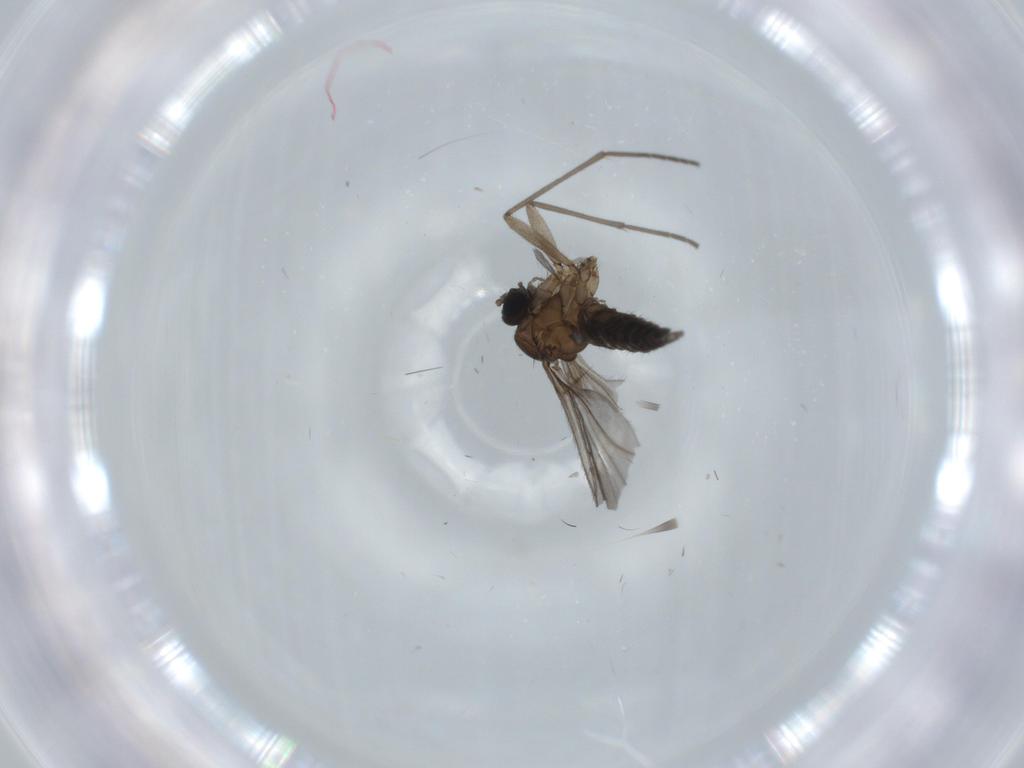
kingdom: Animalia
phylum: Arthropoda
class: Insecta
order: Diptera
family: Sciaridae
